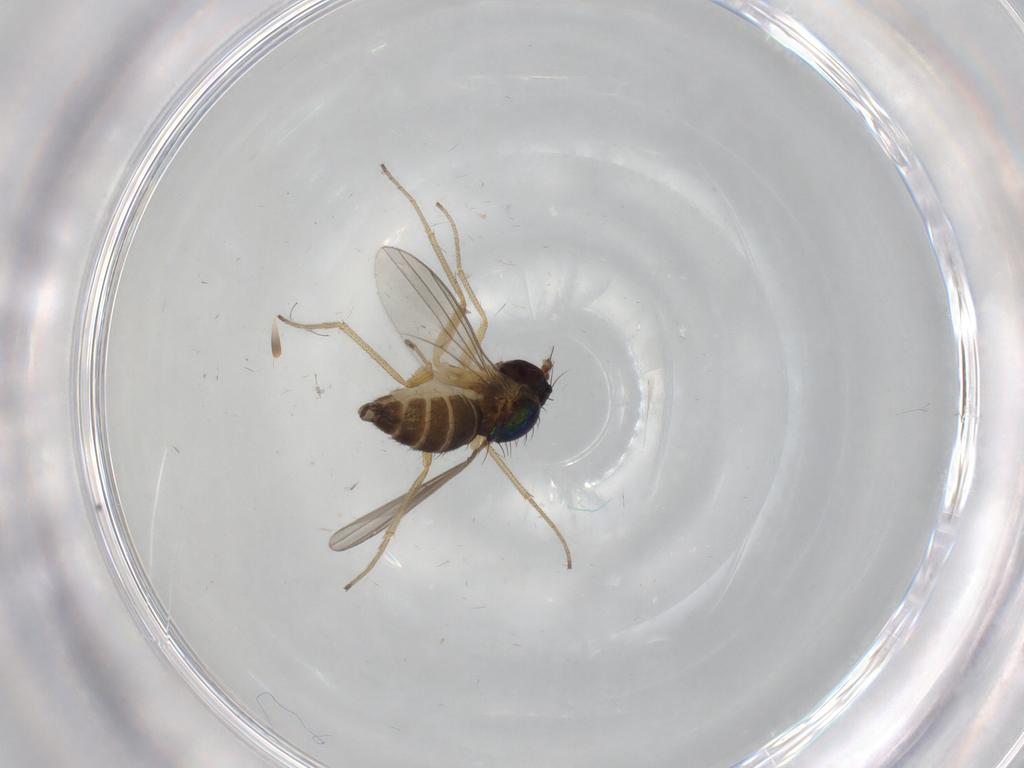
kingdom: Animalia
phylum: Arthropoda
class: Insecta
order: Diptera
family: Dolichopodidae
